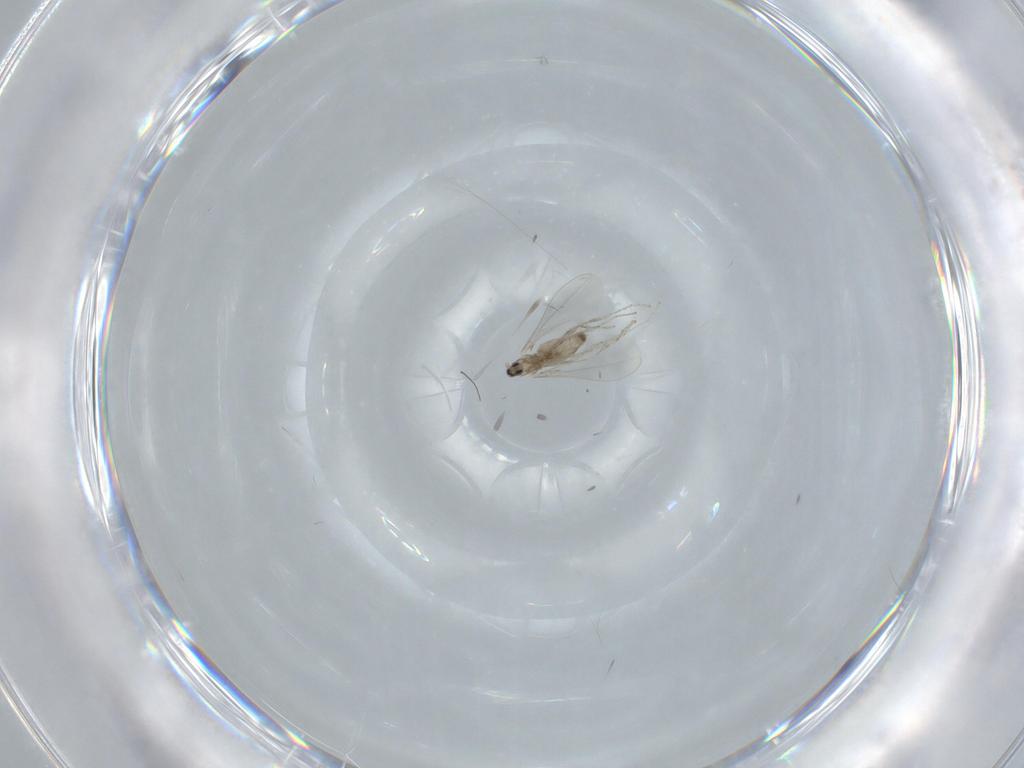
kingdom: Animalia
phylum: Arthropoda
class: Insecta
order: Diptera
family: Cecidomyiidae
